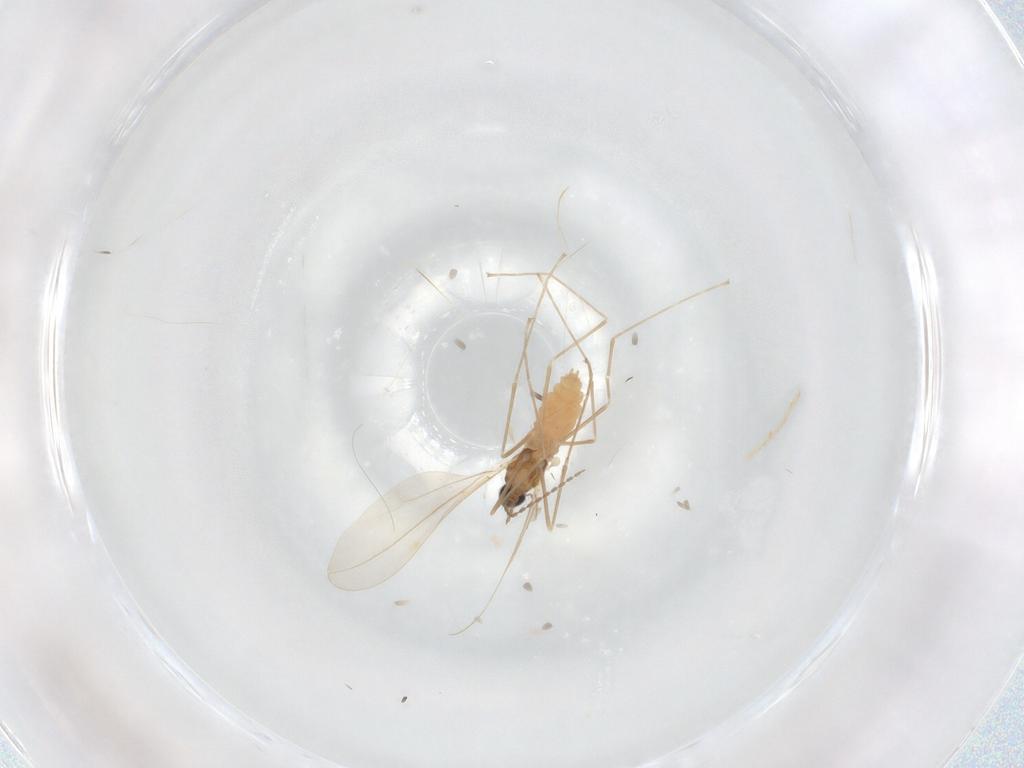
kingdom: Animalia
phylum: Arthropoda
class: Insecta
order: Diptera
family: Cecidomyiidae
